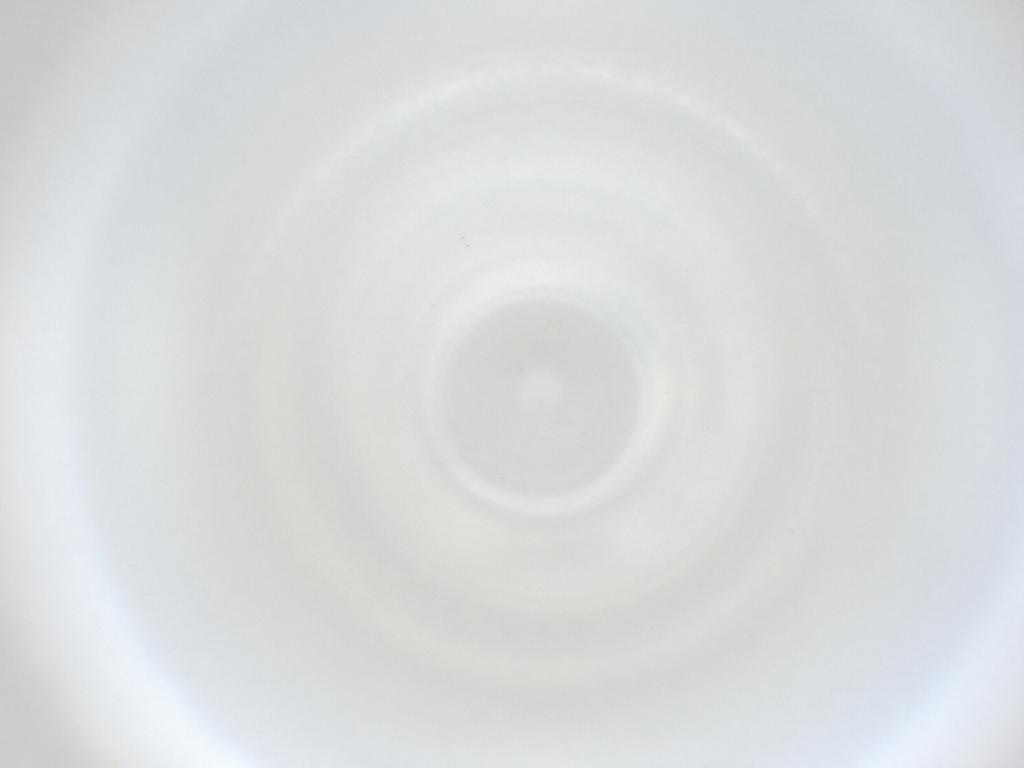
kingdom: Animalia
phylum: Arthropoda
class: Insecta
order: Diptera
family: Cecidomyiidae
